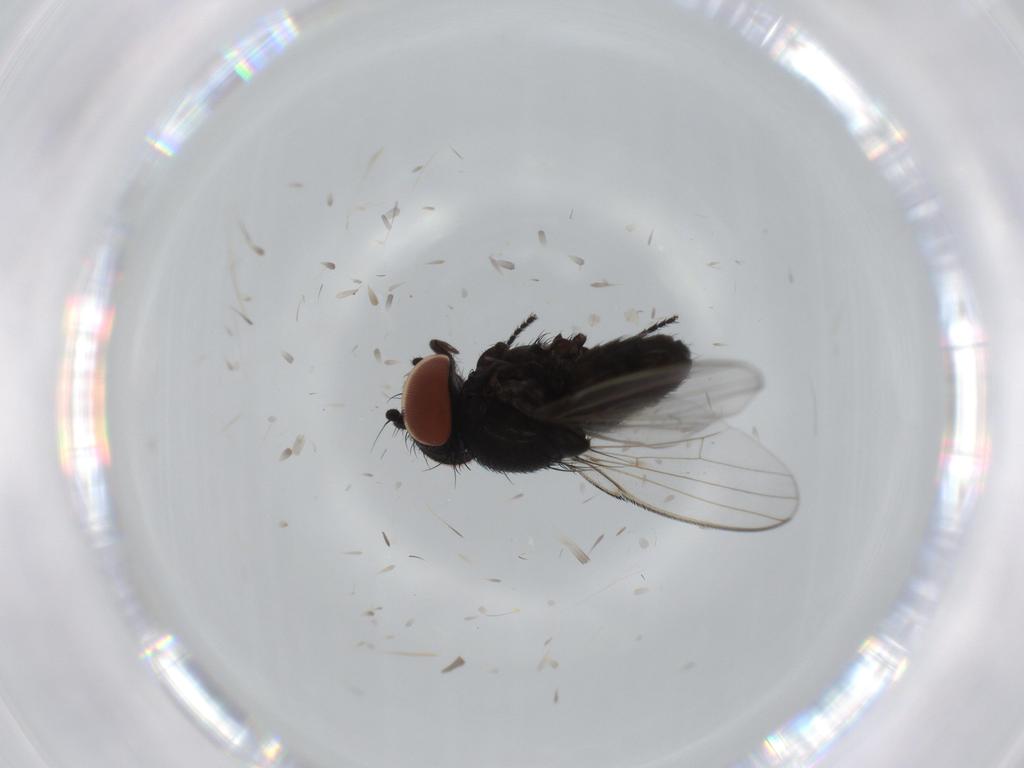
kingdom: Animalia
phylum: Arthropoda
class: Insecta
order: Diptera
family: Milichiidae
